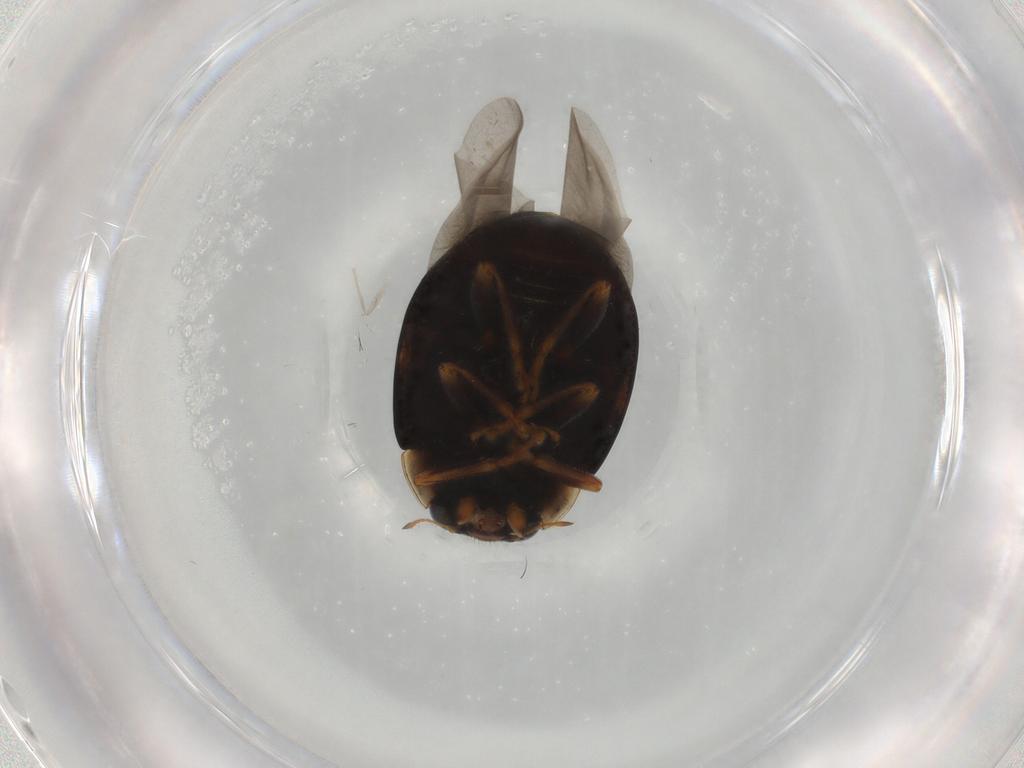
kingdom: Animalia
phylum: Arthropoda
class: Insecta
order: Coleoptera
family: Coccinellidae
